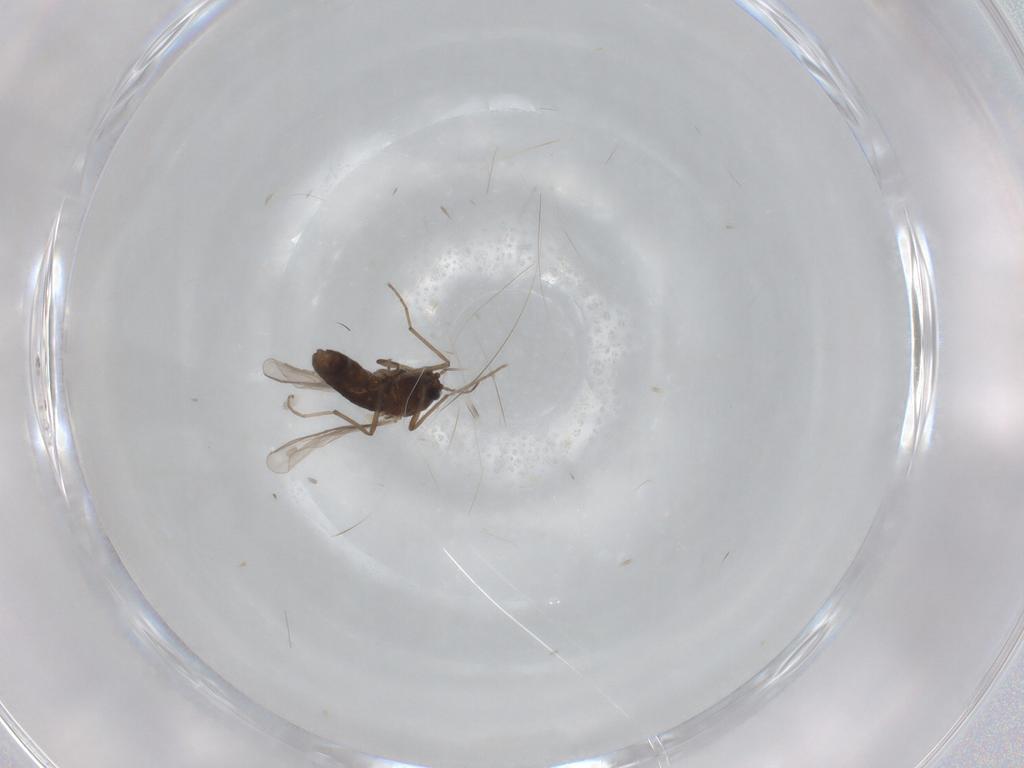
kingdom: Animalia
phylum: Arthropoda
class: Insecta
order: Diptera
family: Chironomidae
